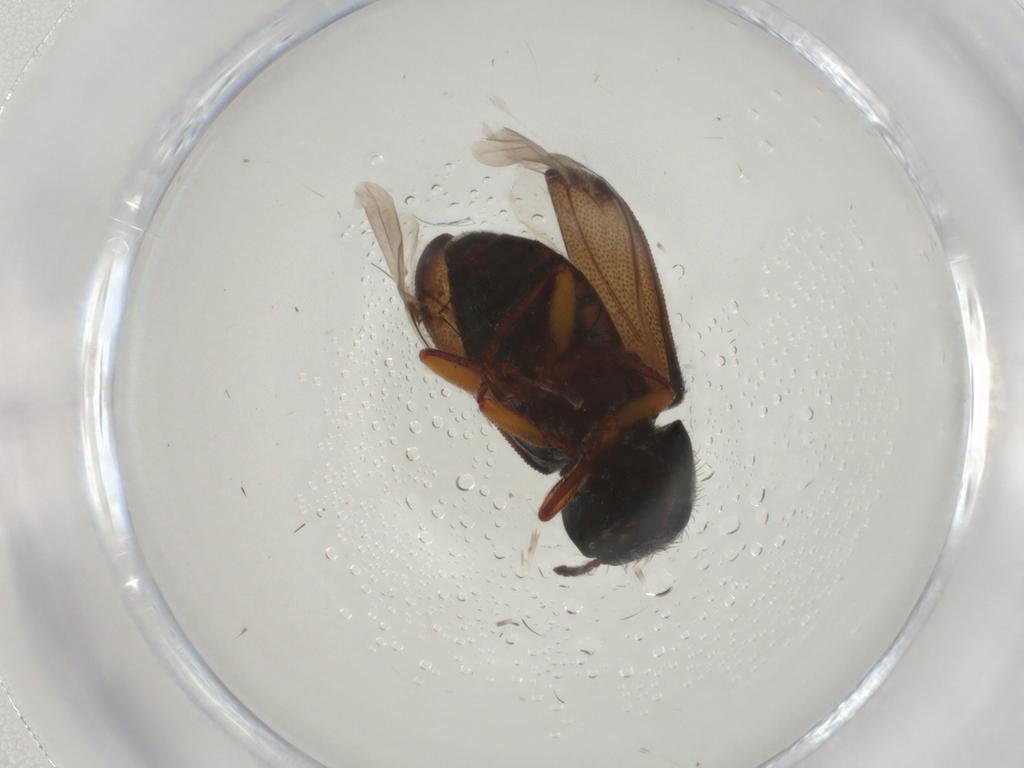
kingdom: Animalia
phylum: Arthropoda
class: Insecta
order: Coleoptera
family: Melyridae
